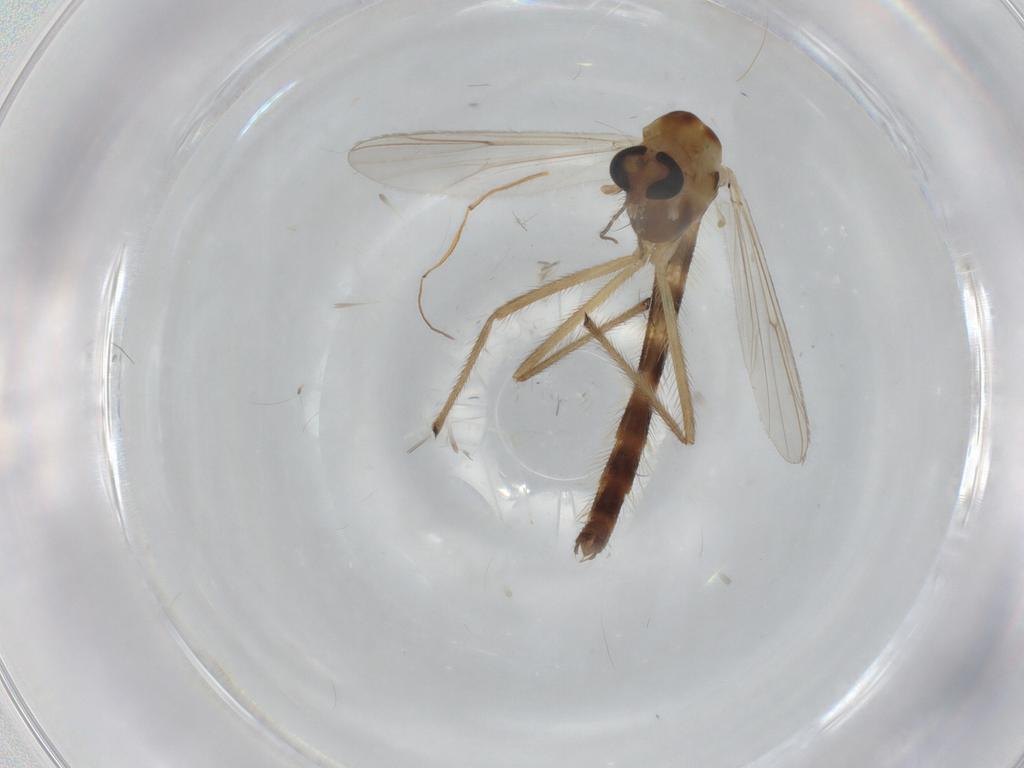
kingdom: Animalia
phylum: Arthropoda
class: Insecta
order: Diptera
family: Chironomidae
